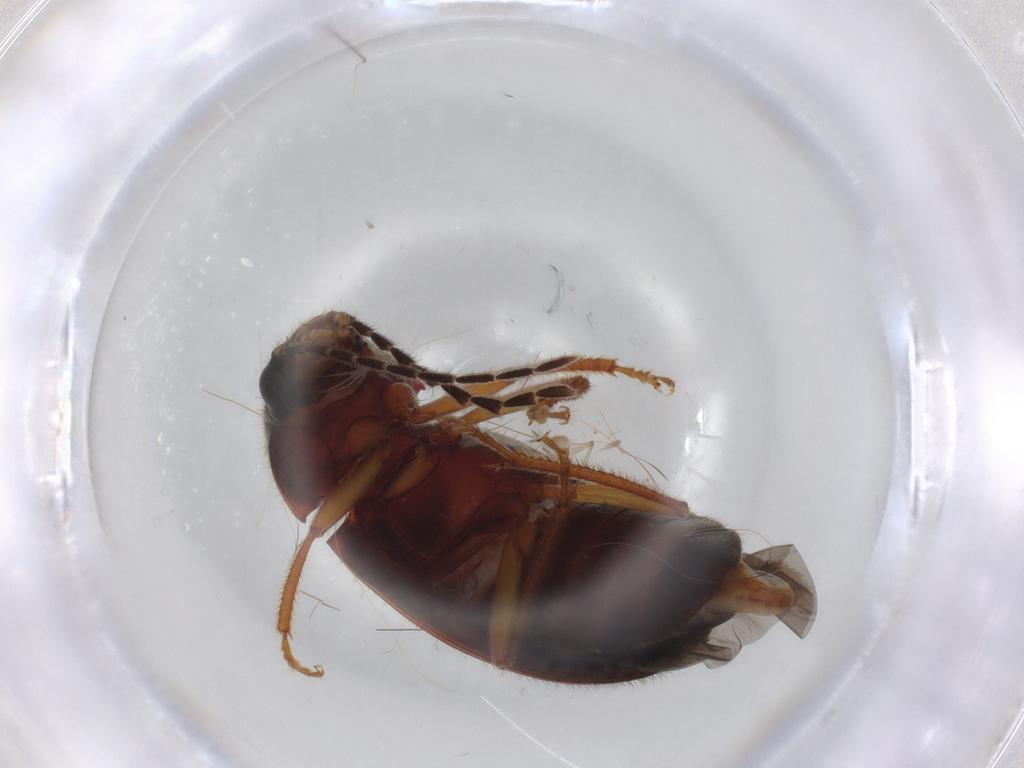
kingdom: Animalia
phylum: Arthropoda
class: Insecta
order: Coleoptera
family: Ptilodactylidae
